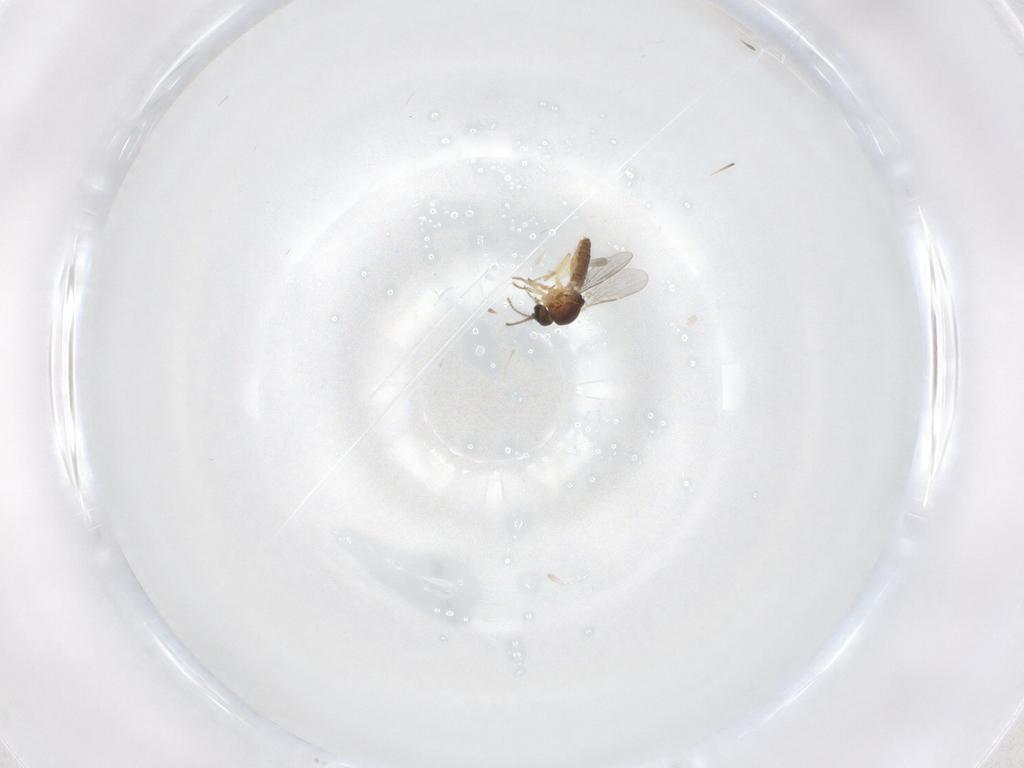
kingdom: Animalia
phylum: Arthropoda
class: Insecta
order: Diptera
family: Ceratopogonidae
